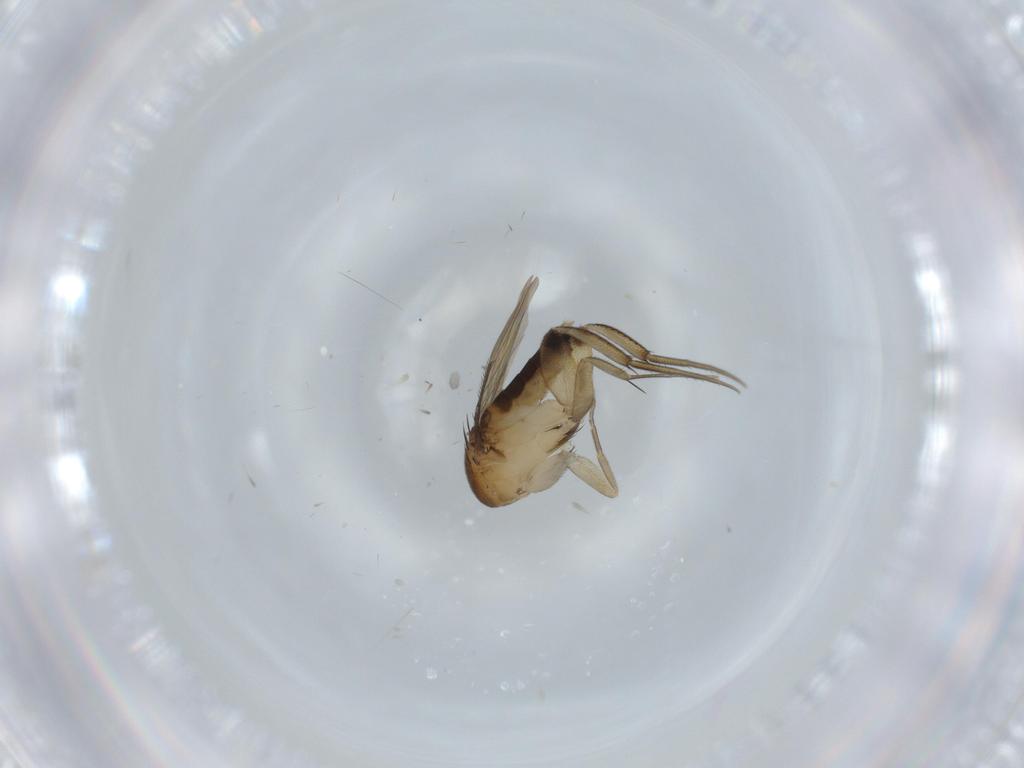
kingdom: Animalia
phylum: Arthropoda
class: Insecta
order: Diptera
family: Phoridae
